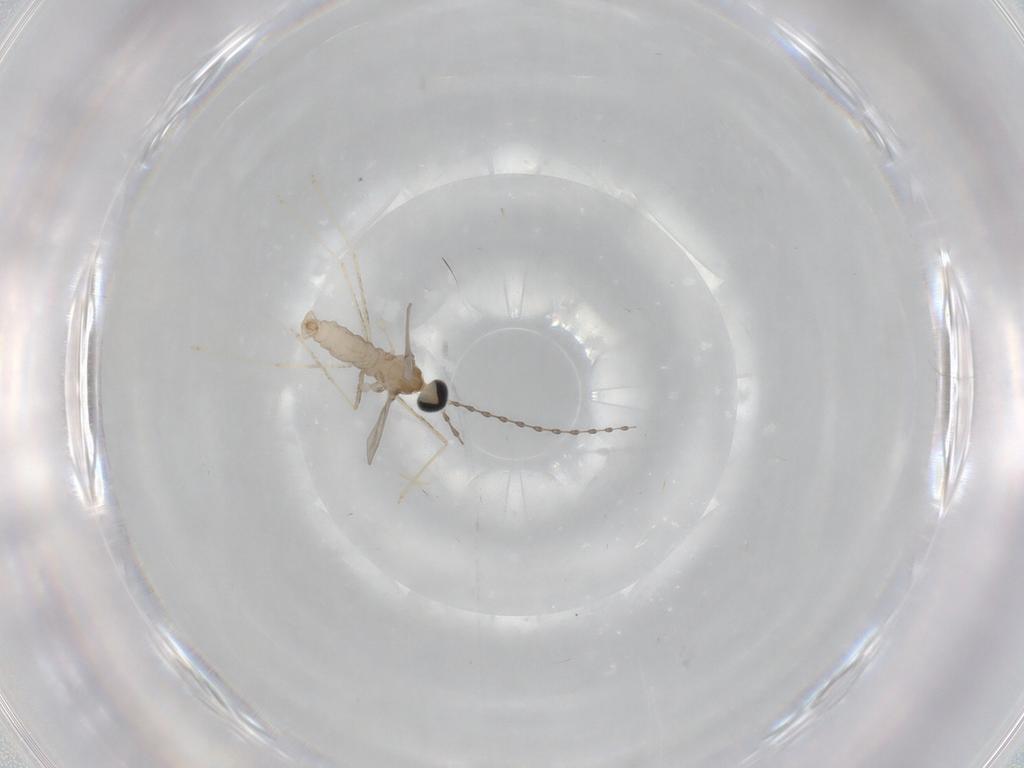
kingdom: Animalia
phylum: Arthropoda
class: Insecta
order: Diptera
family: Cecidomyiidae
